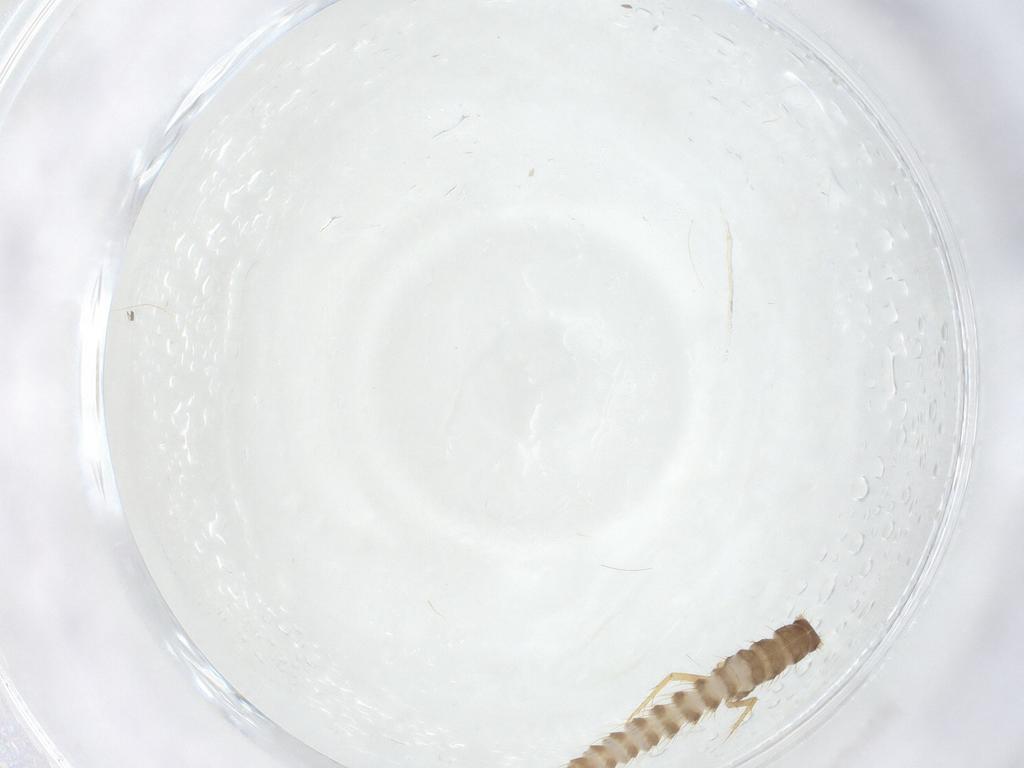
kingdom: Animalia
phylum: Arthropoda
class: Insecta
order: Coleoptera
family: Staphylinidae
